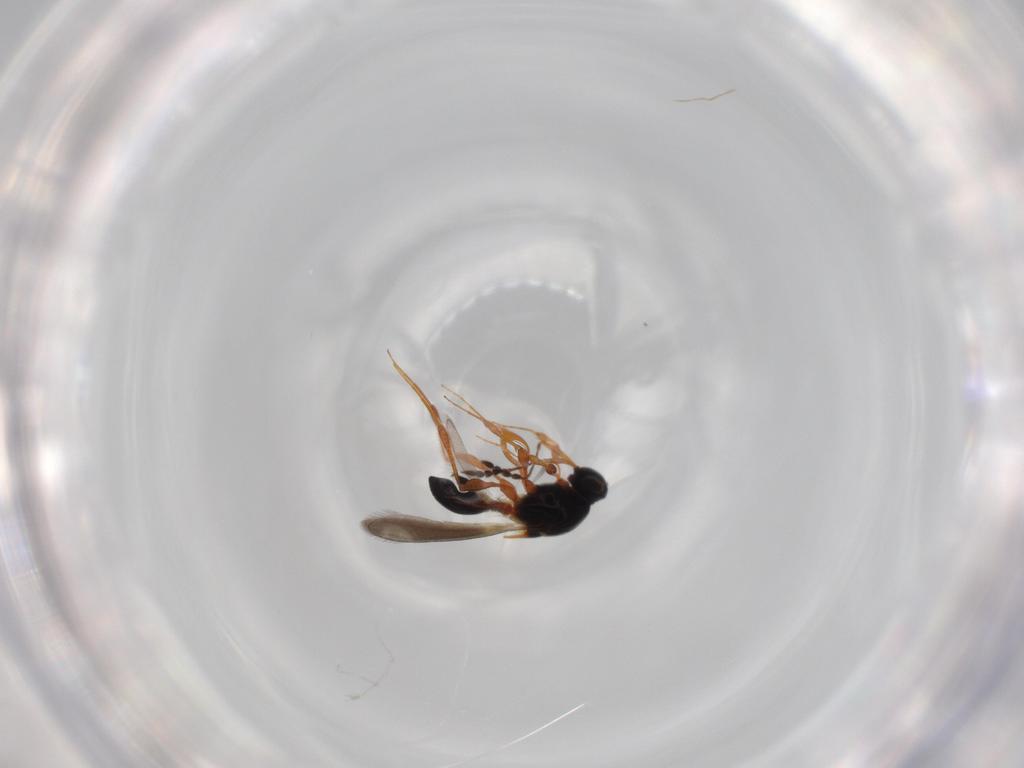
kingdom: Animalia
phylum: Arthropoda
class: Insecta
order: Hymenoptera
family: Platygastridae
